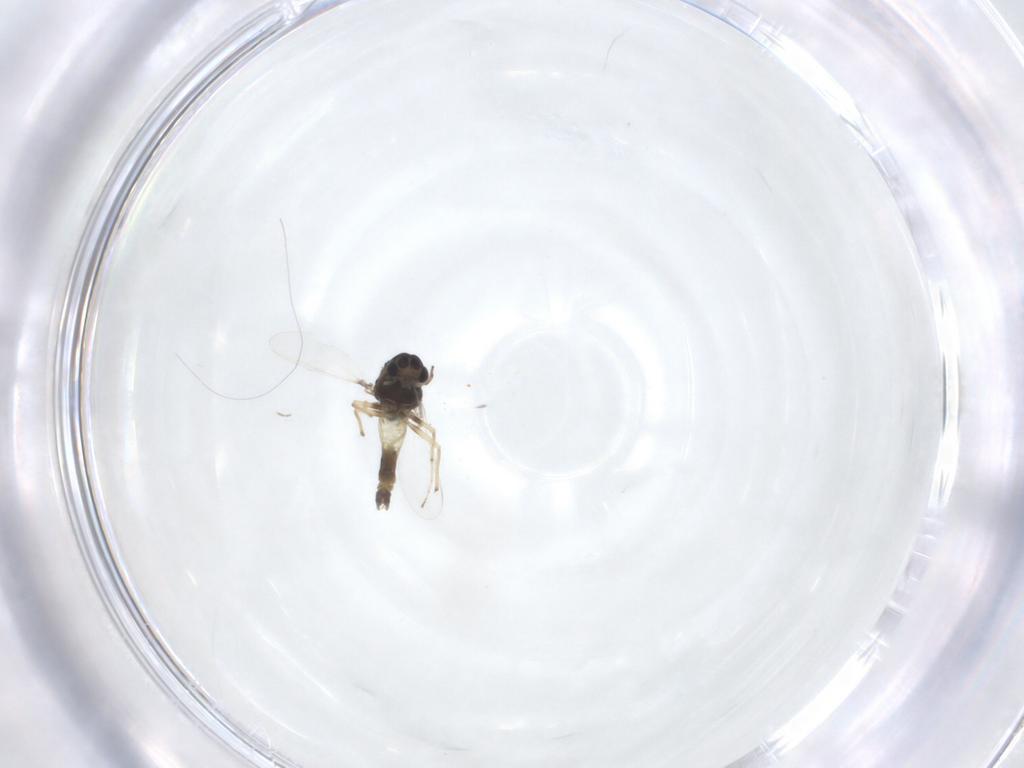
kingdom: Animalia
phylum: Arthropoda
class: Insecta
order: Diptera
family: Chironomidae
